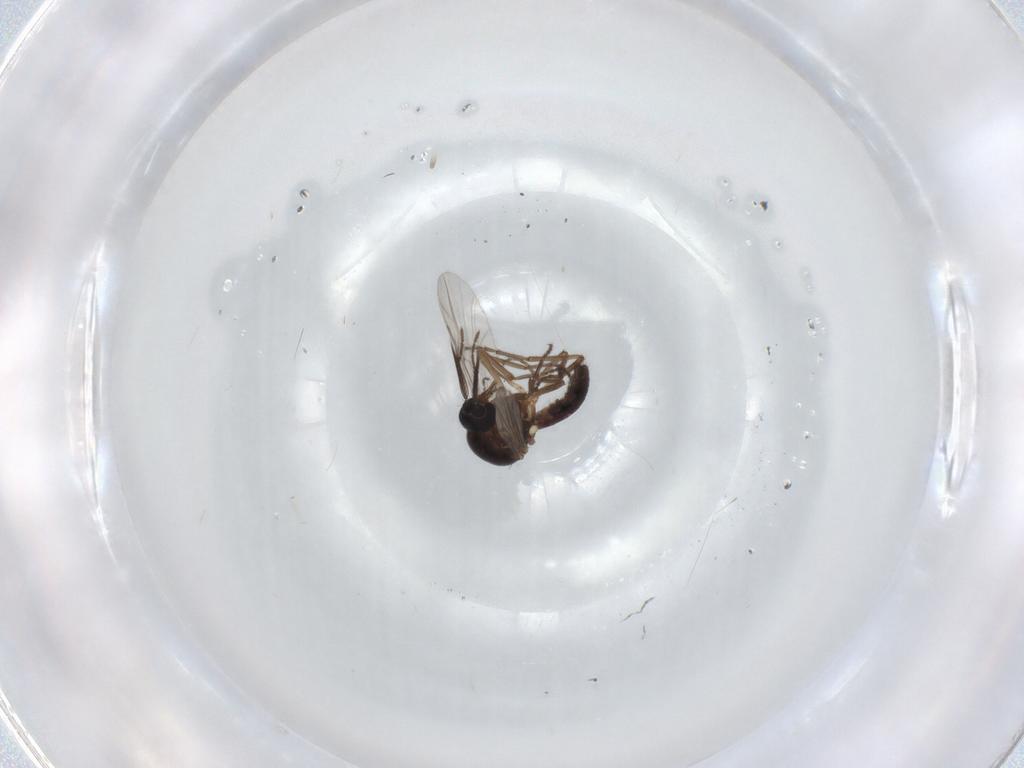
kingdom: Animalia
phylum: Arthropoda
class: Insecta
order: Diptera
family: Ceratopogonidae
